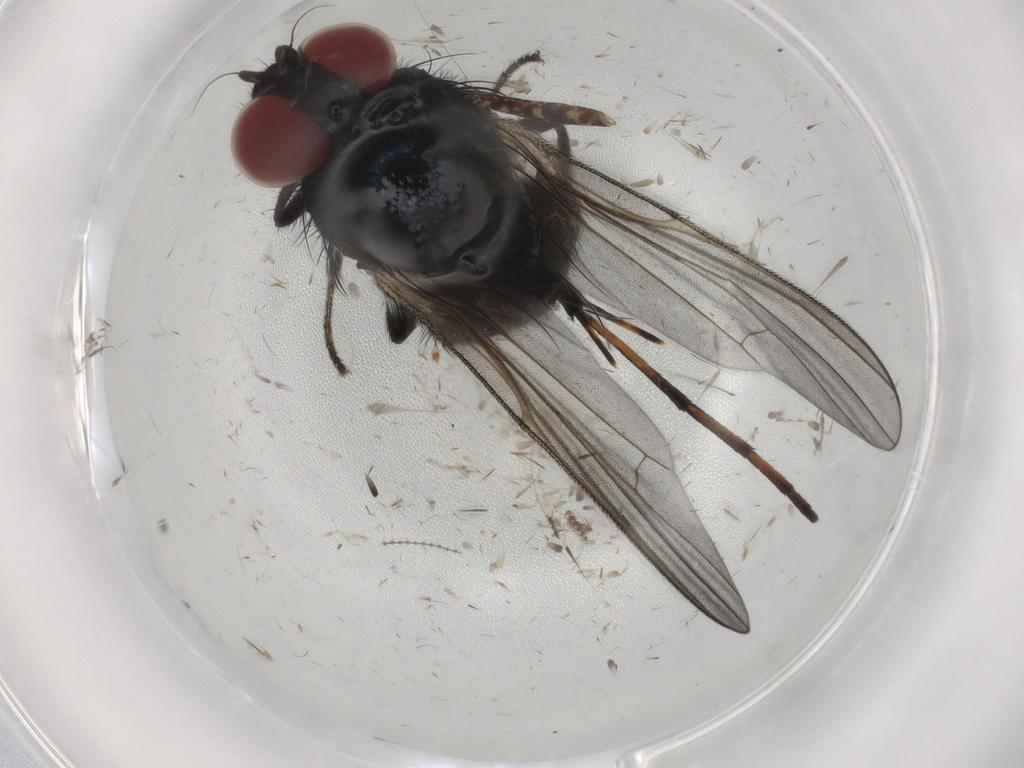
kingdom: Animalia
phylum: Arthropoda
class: Insecta
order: Diptera
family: Lonchaeidae
